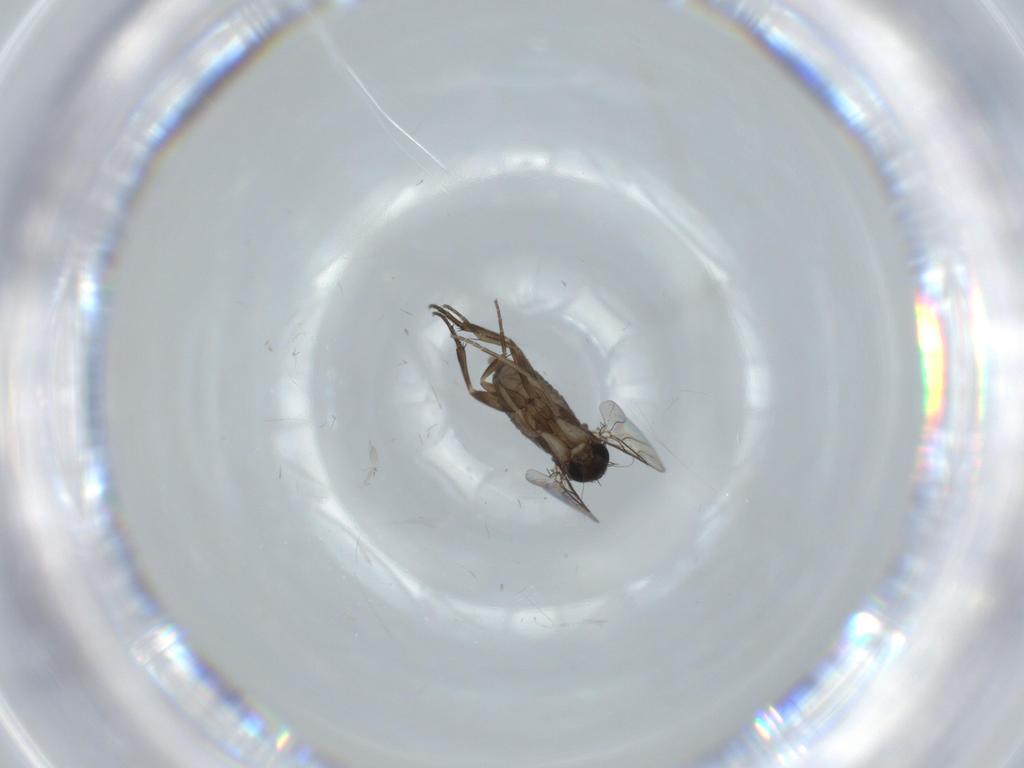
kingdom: Animalia
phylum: Arthropoda
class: Insecta
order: Diptera
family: Phoridae
